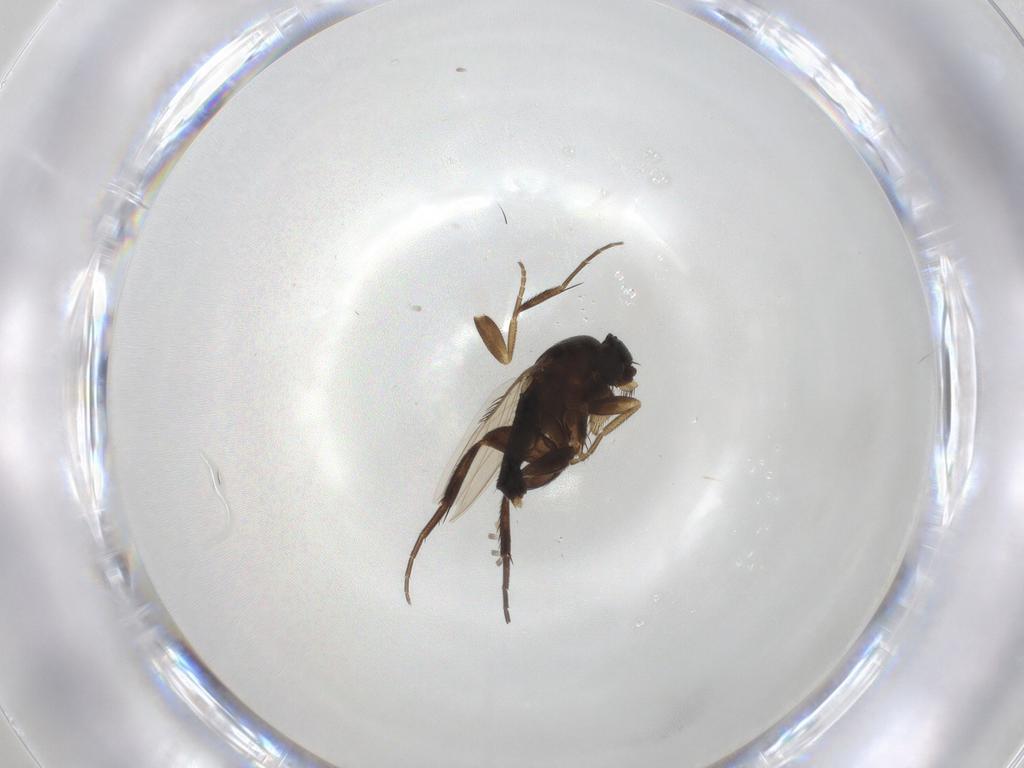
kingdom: Animalia
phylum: Arthropoda
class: Insecta
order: Diptera
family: Phoridae
